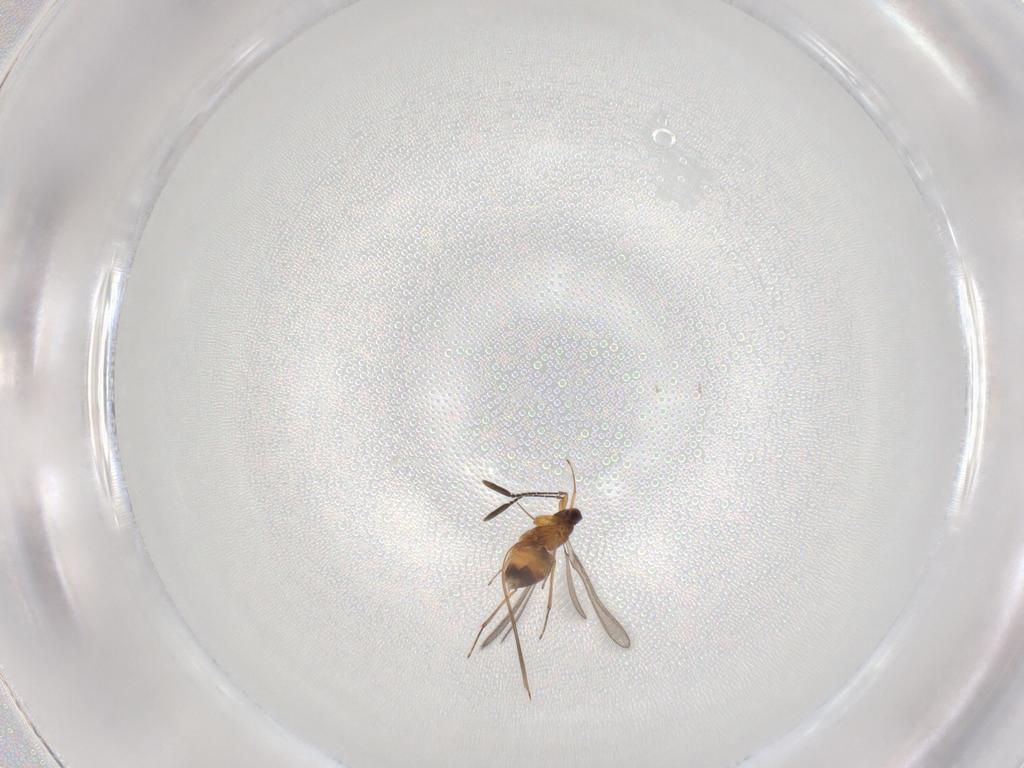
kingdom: Animalia
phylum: Arthropoda
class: Insecta
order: Hymenoptera
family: Mymaridae
